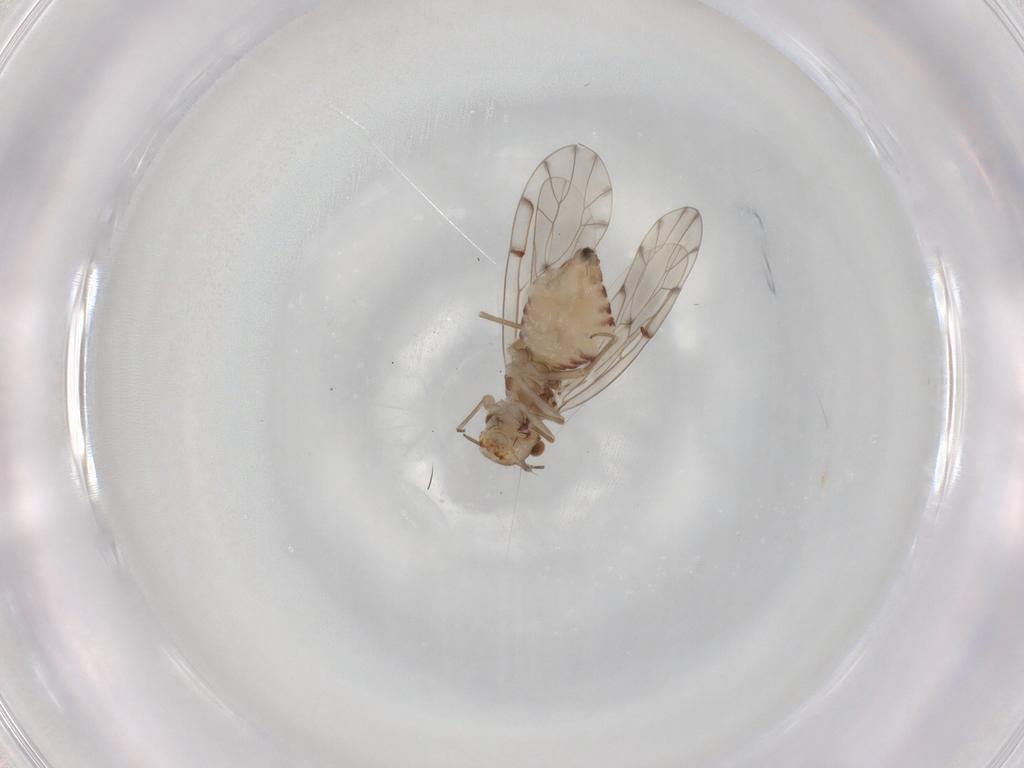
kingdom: Animalia
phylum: Arthropoda
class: Insecta
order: Diptera
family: Sciaridae
